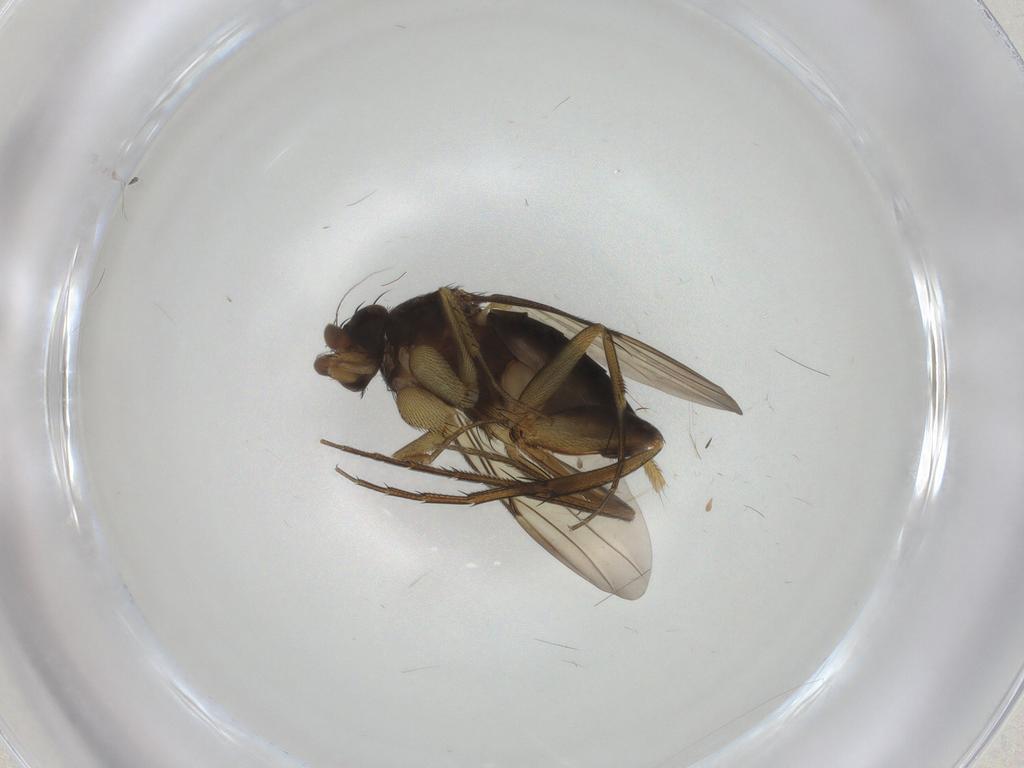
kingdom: Animalia
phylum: Arthropoda
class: Insecta
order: Diptera
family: Phoridae
